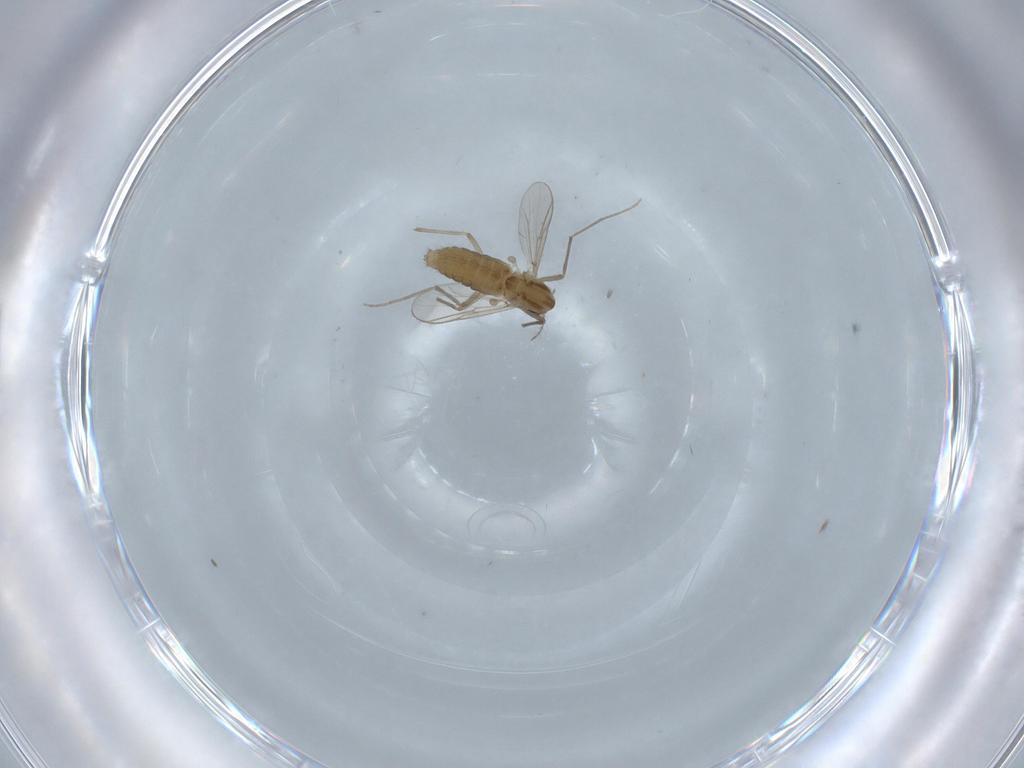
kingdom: Animalia
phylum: Arthropoda
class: Insecta
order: Diptera
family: Chironomidae
